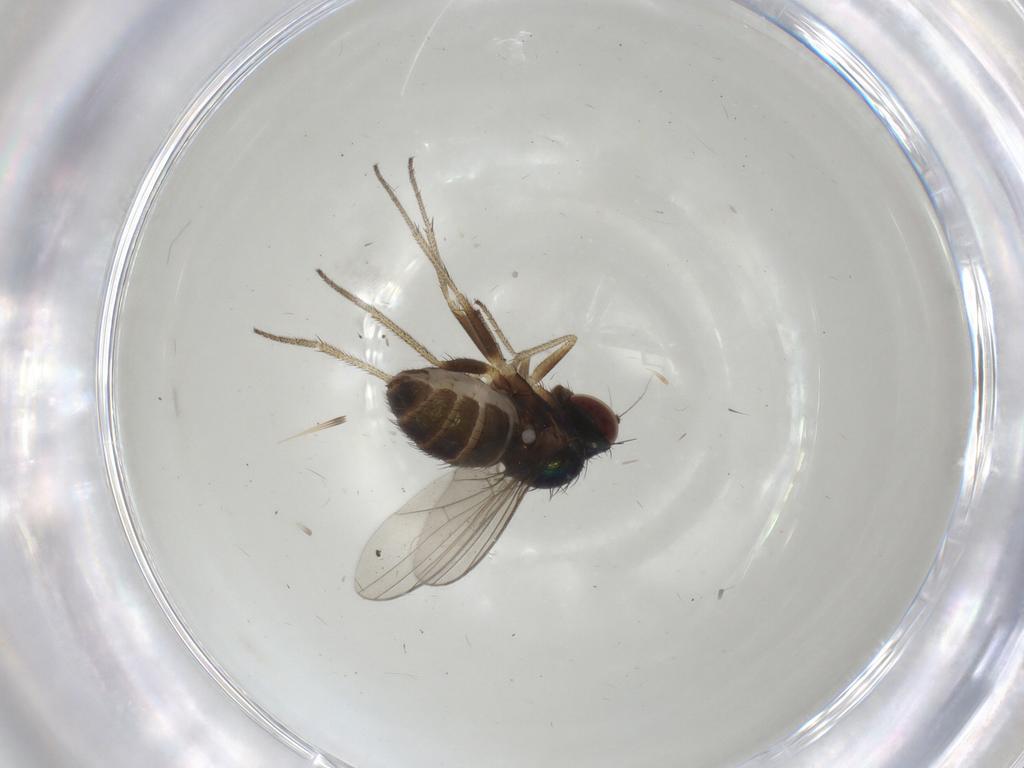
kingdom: Animalia
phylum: Arthropoda
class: Insecta
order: Diptera
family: Dolichopodidae
